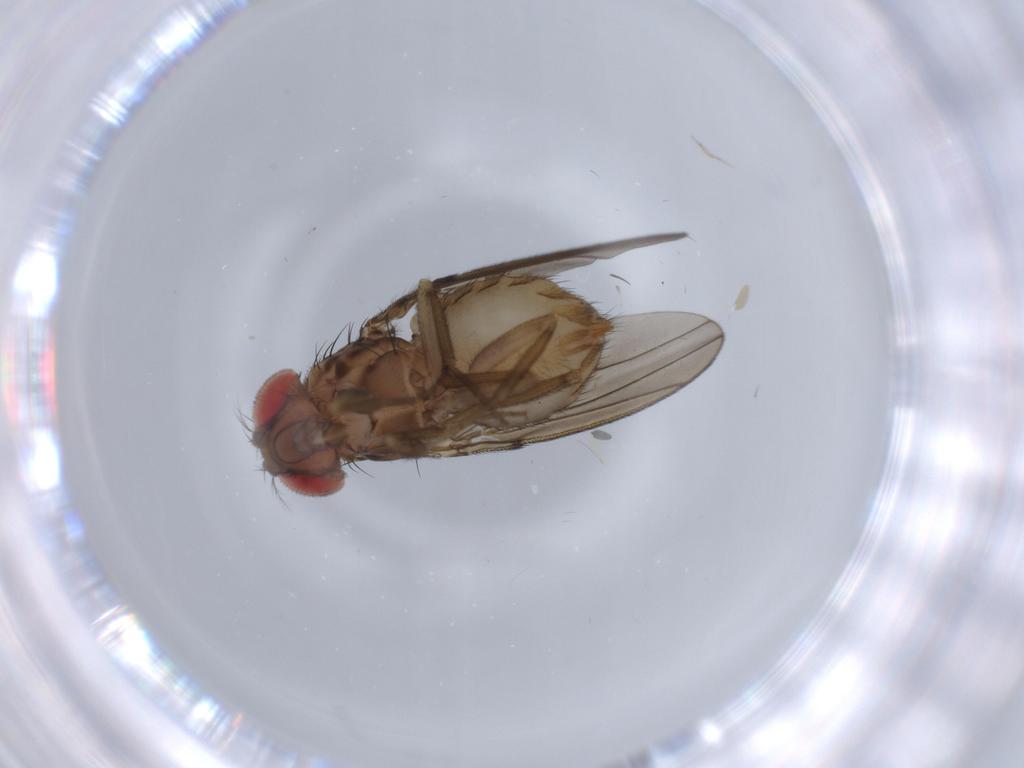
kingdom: Animalia
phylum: Arthropoda
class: Insecta
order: Diptera
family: Drosophilidae
